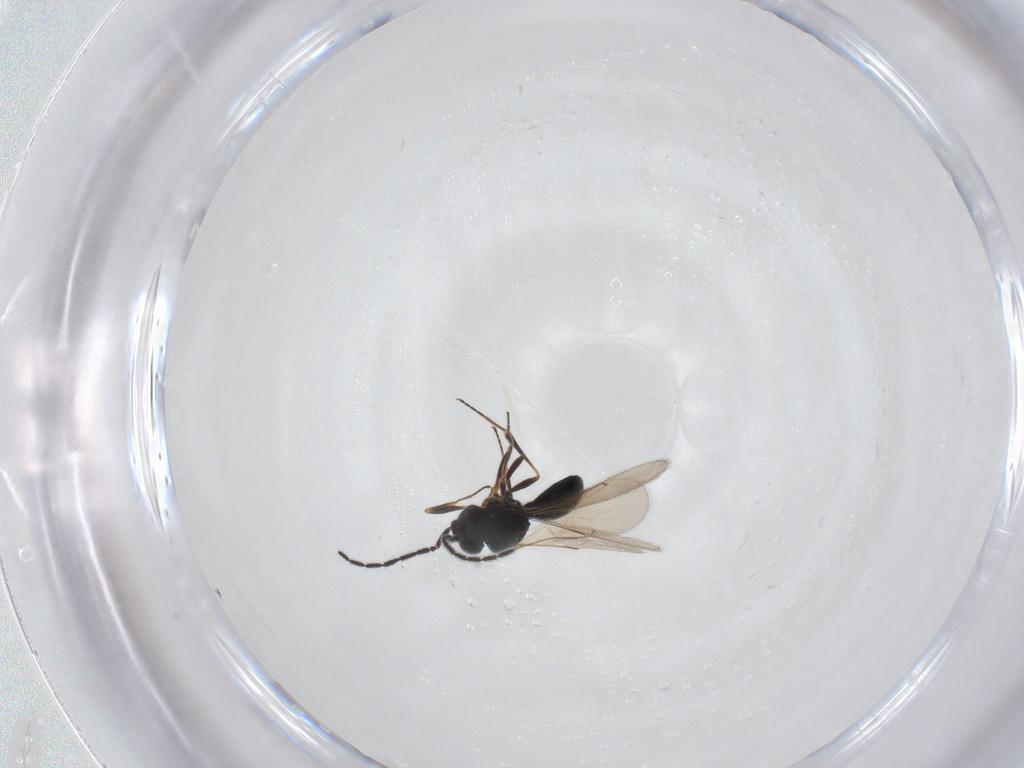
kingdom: Animalia
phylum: Arthropoda
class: Insecta
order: Hymenoptera
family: Scelionidae
